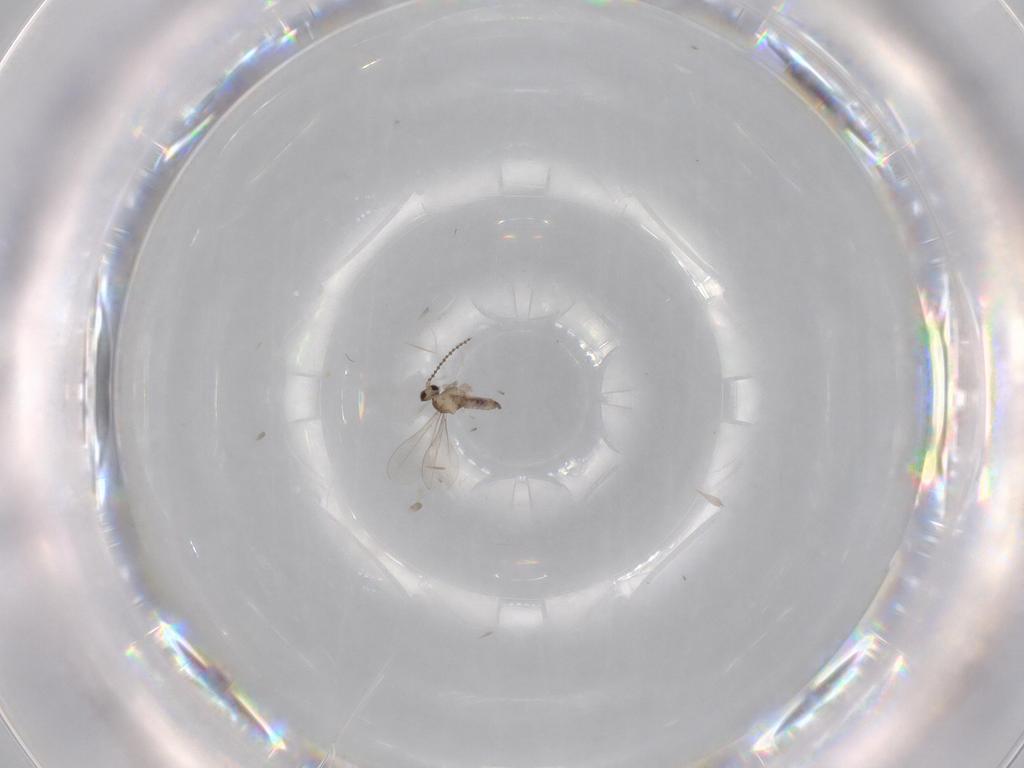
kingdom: Animalia
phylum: Arthropoda
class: Insecta
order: Diptera
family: Cecidomyiidae
